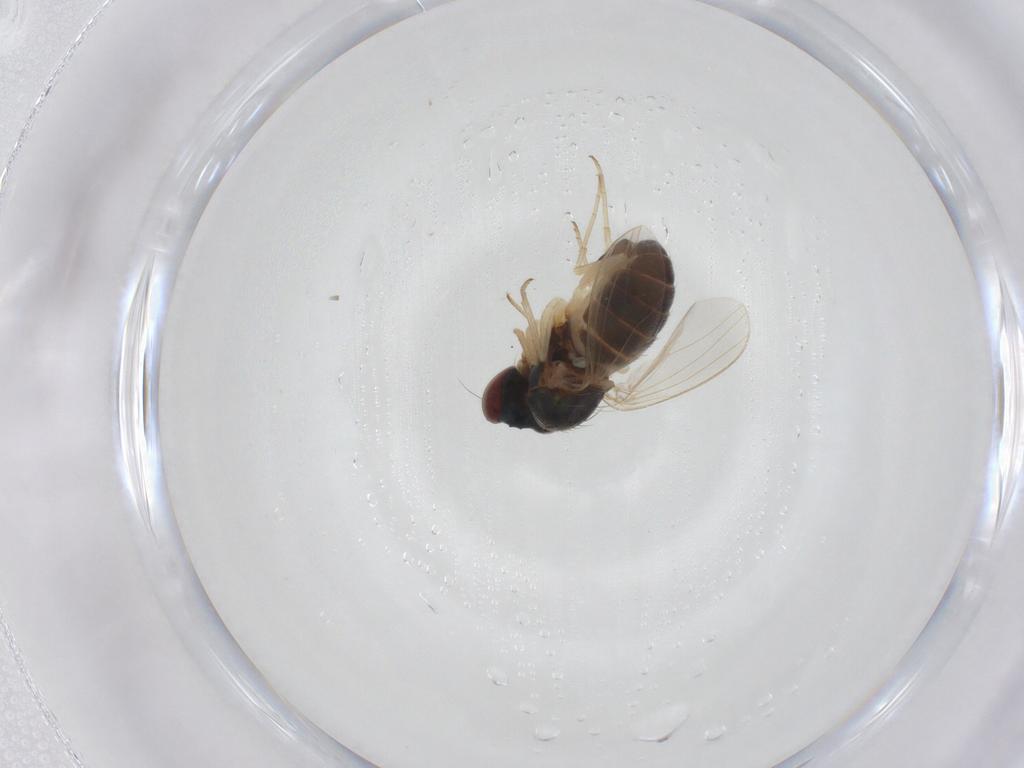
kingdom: Animalia
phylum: Arthropoda
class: Insecta
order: Diptera
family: Dolichopodidae
